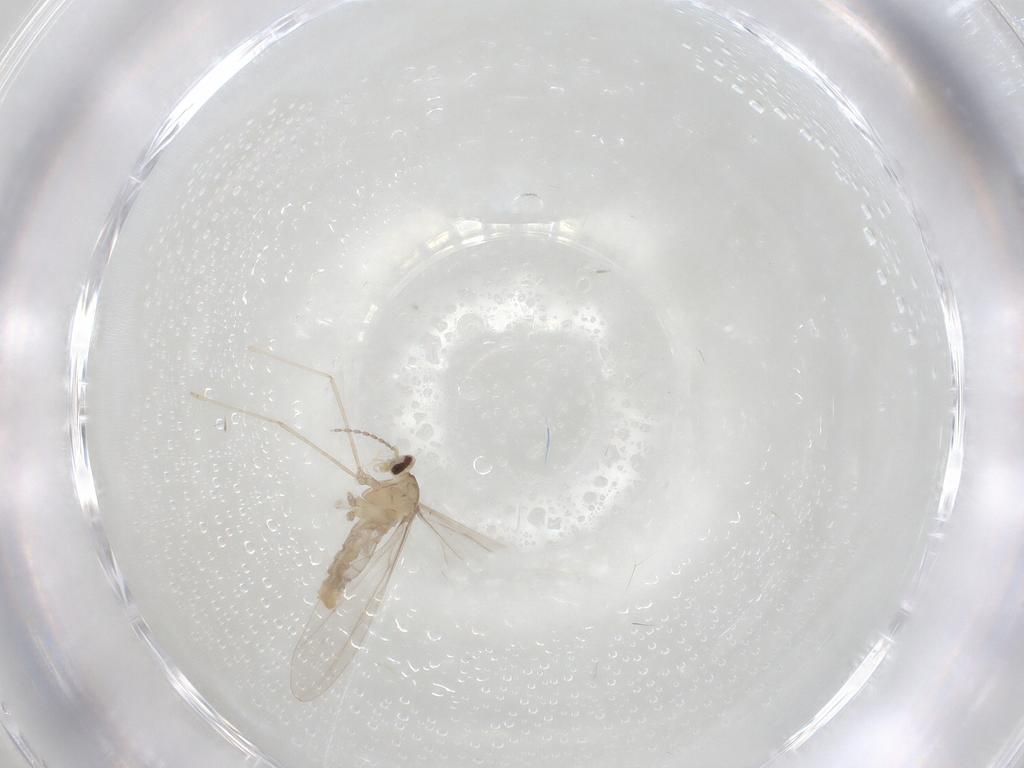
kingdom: Animalia
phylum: Arthropoda
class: Insecta
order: Diptera
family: Cecidomyiidae
